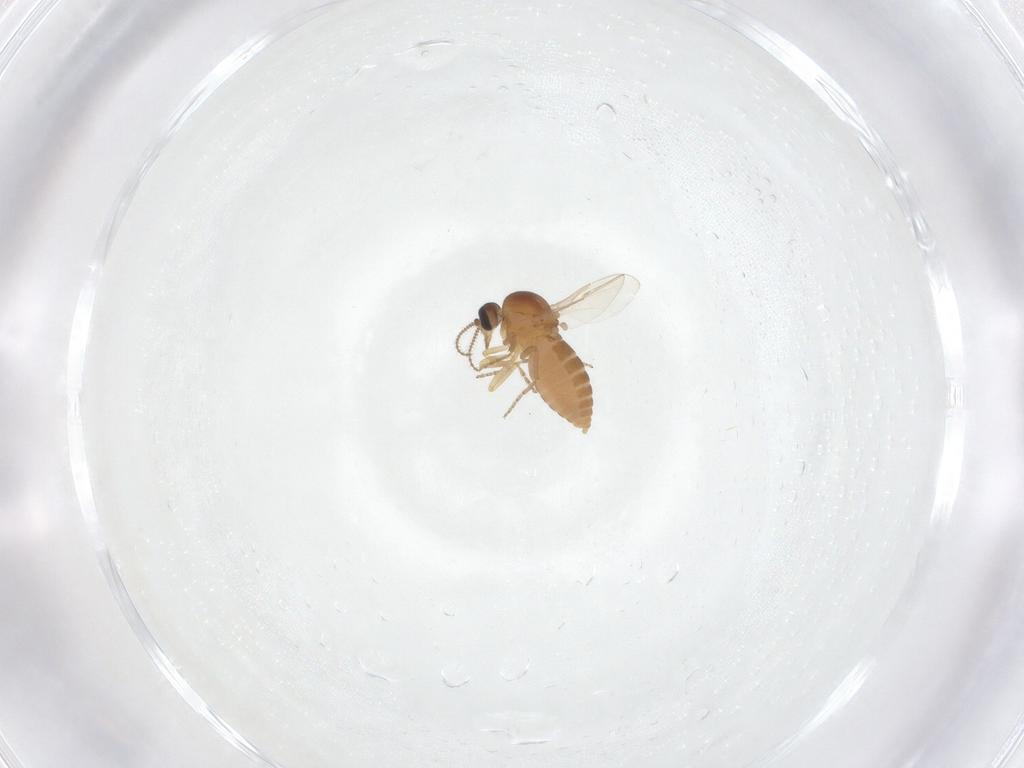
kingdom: Animalia
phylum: Arthropoda
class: Insecta
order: Diptera
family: Ceratopogonidae
